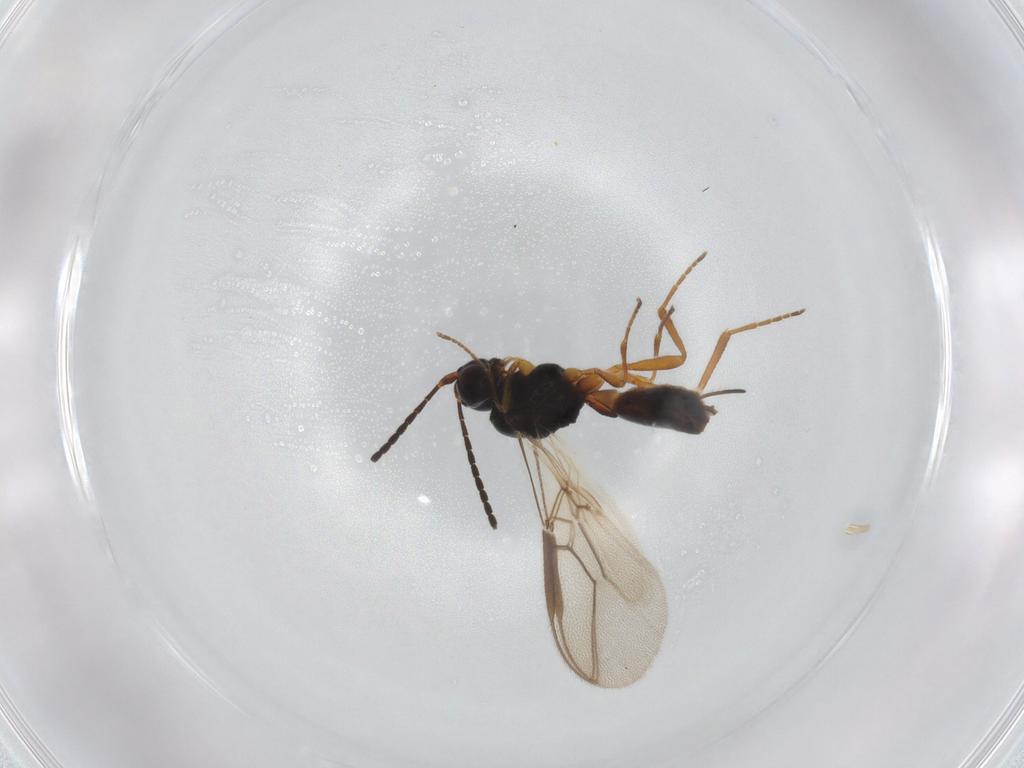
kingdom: Animalia
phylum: Arthropoda
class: Insecta
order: Hymenoptera
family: Braconidae
